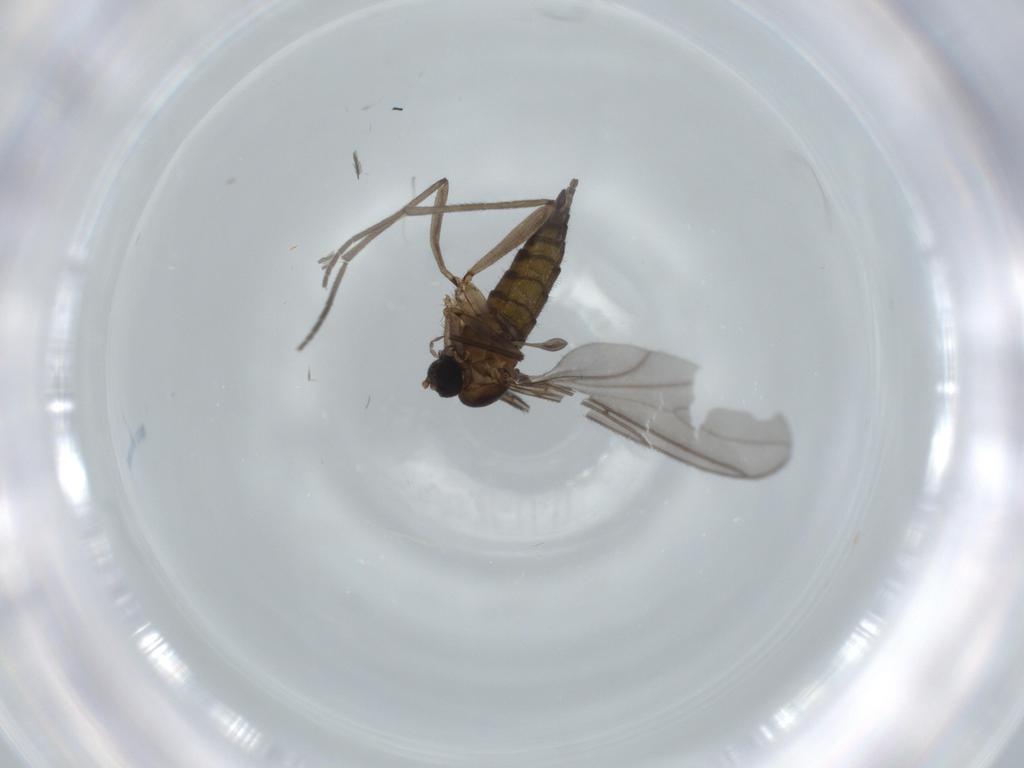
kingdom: Animalia
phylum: Arthropoda
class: Insecta
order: Diptera
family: Sciaridae
